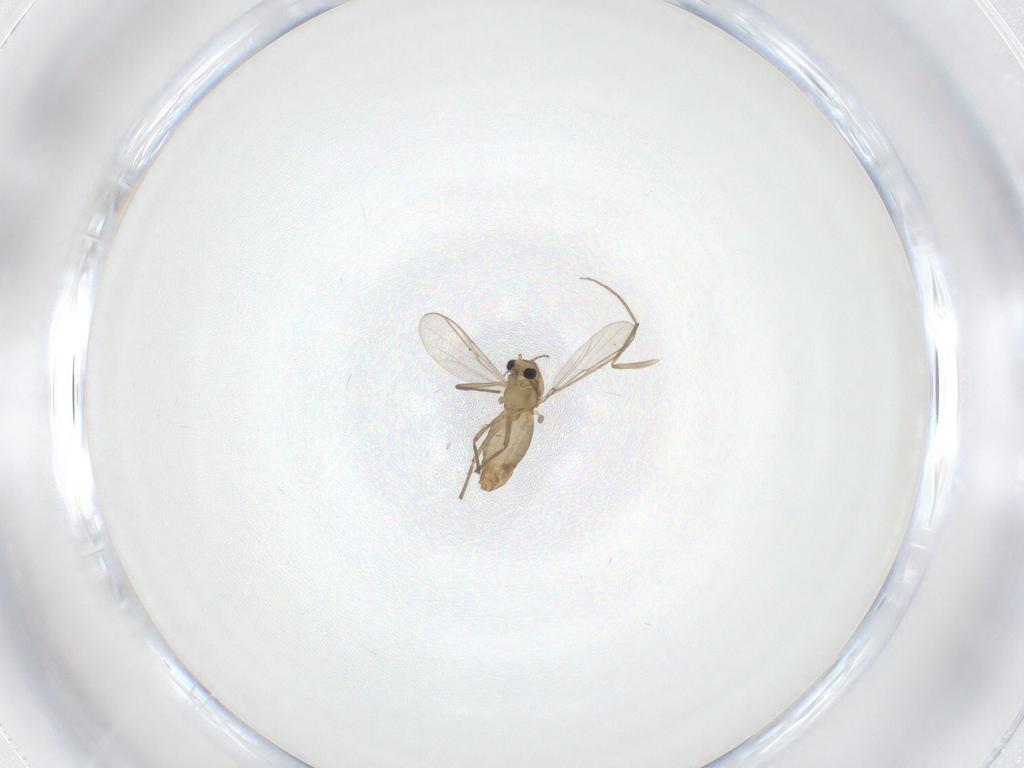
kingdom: Animalia
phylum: Arthropoda
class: Insecta
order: Diptera
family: Chironomidae
